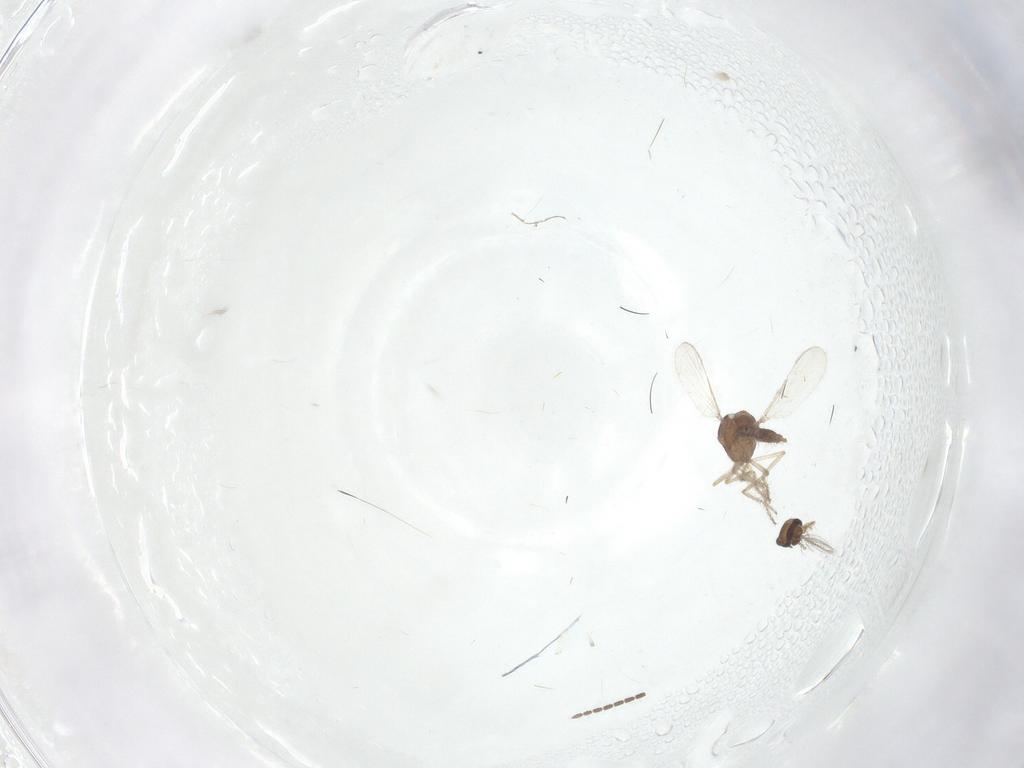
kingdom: Animalia
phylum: Arthropoda
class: Insecta
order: Diptera
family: Ceratopogonidae
